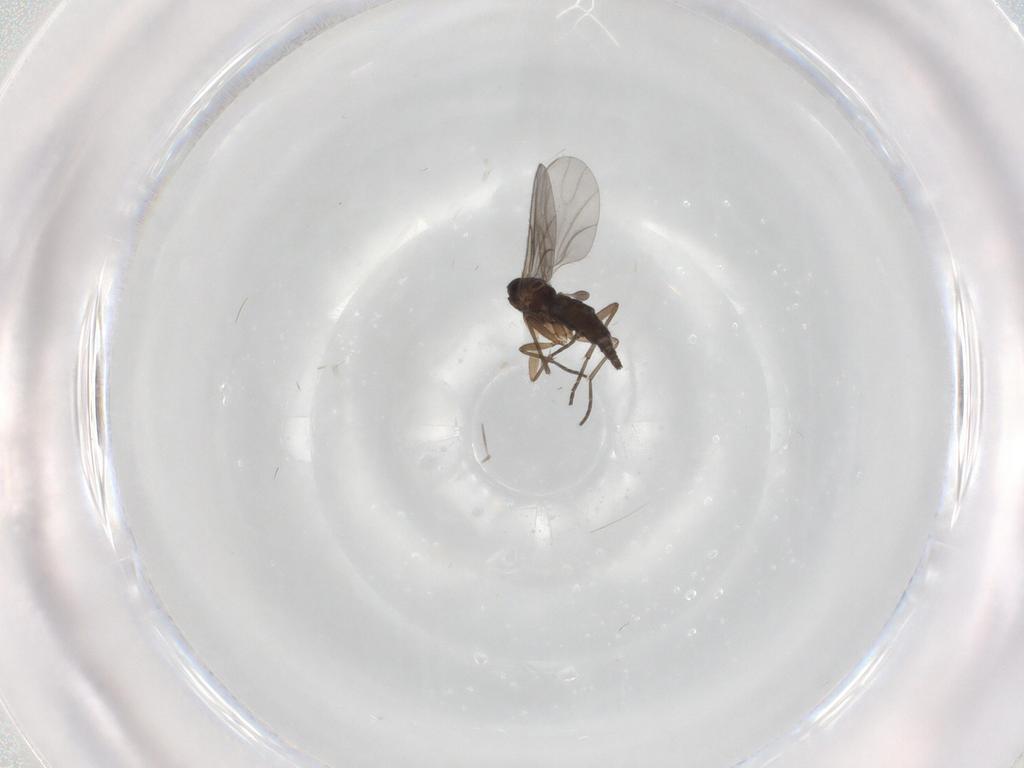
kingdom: Animalia
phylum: Arthropoda
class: Insecta
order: Diptera
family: Sciaridae
